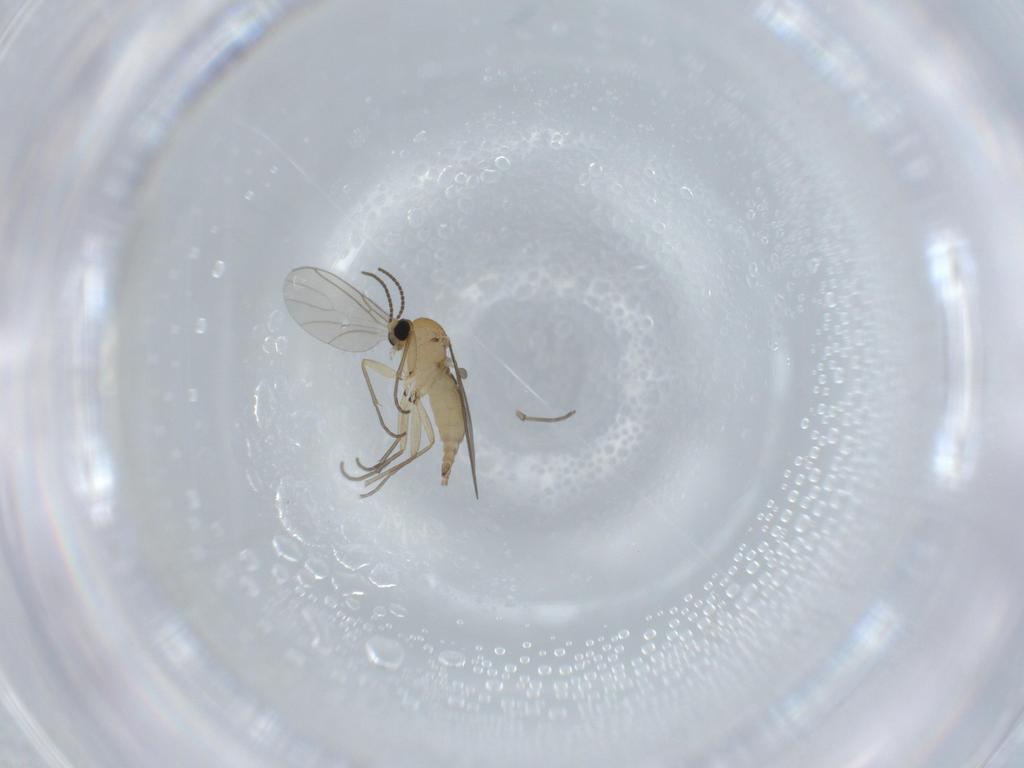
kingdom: Animalia
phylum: Arthropoda
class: Insecta
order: Diptera
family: Sciaridae
